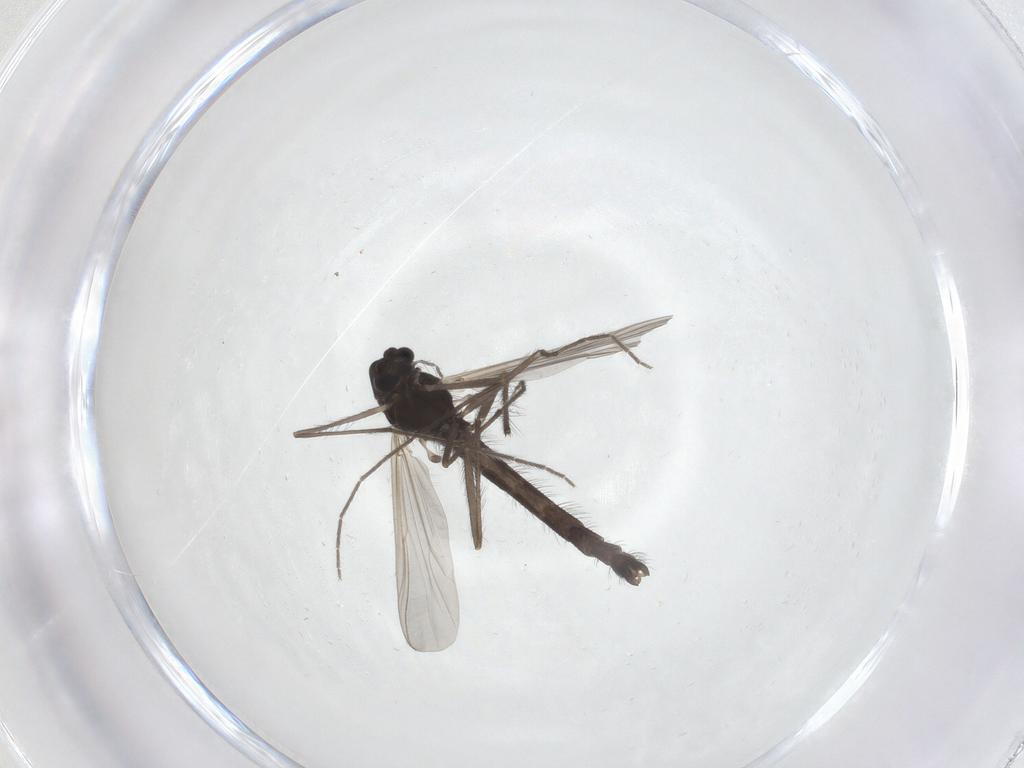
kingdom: Animalia
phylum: Arthropoda
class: Insecta
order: Diptera
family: Chironomidae
